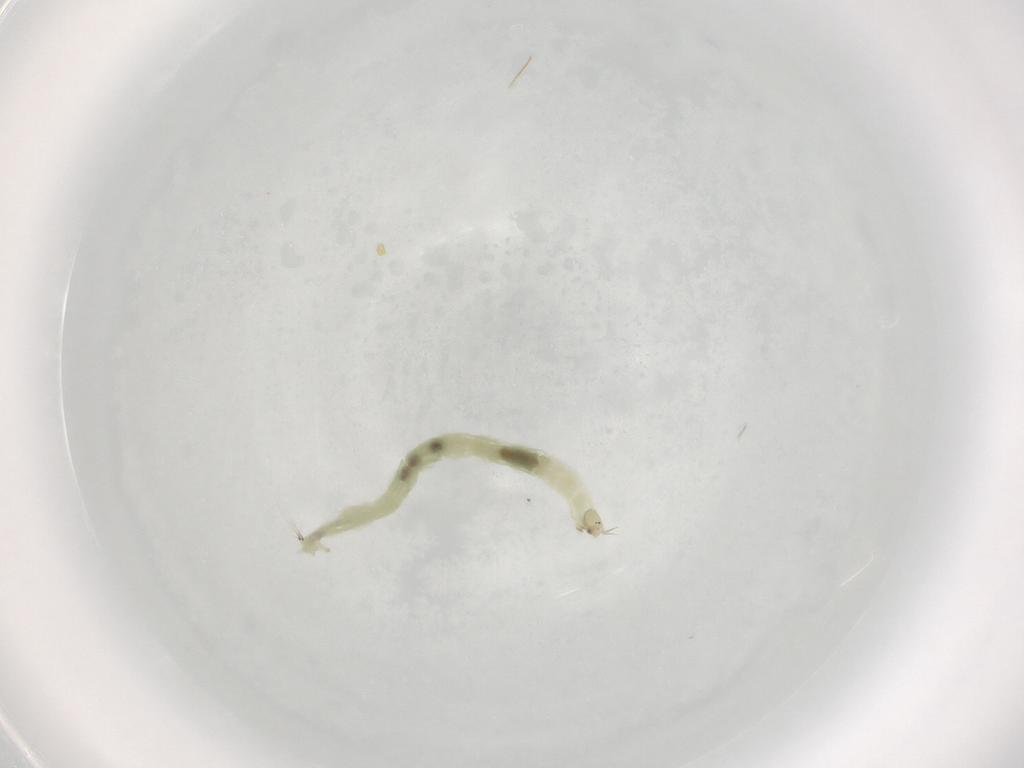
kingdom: Animalia
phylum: Arthropoda
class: Insecta
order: Diptera
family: Chironomidae
